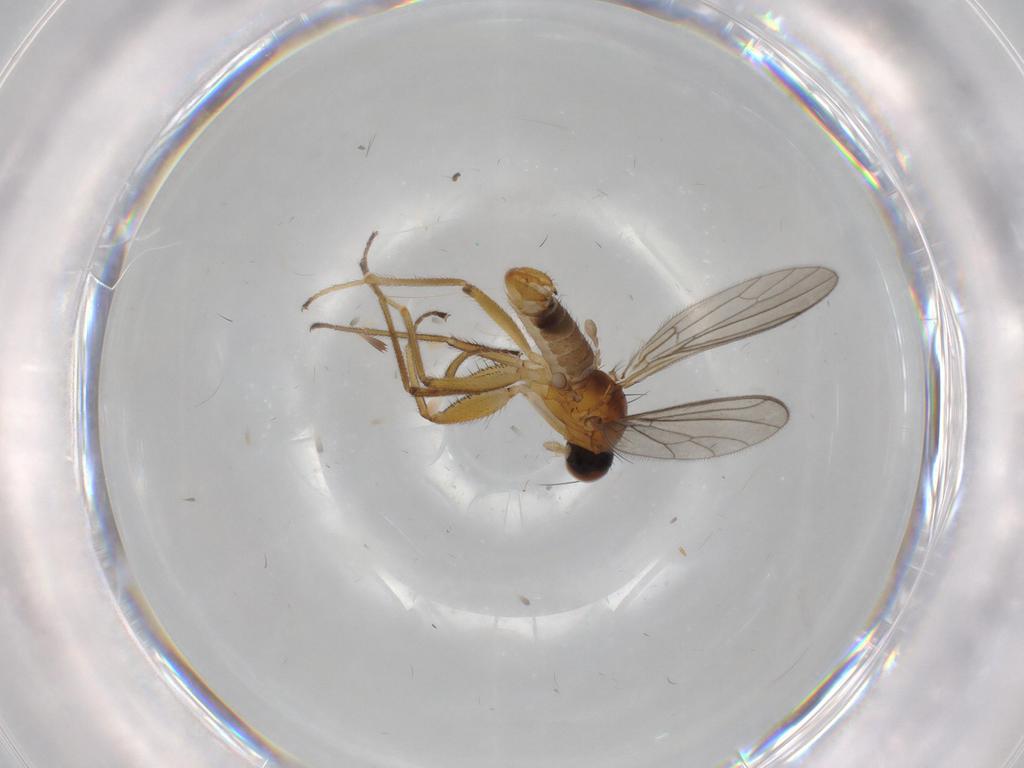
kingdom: Animalia
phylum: Arthropoda
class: Insecta
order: Diptera
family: Empididae
